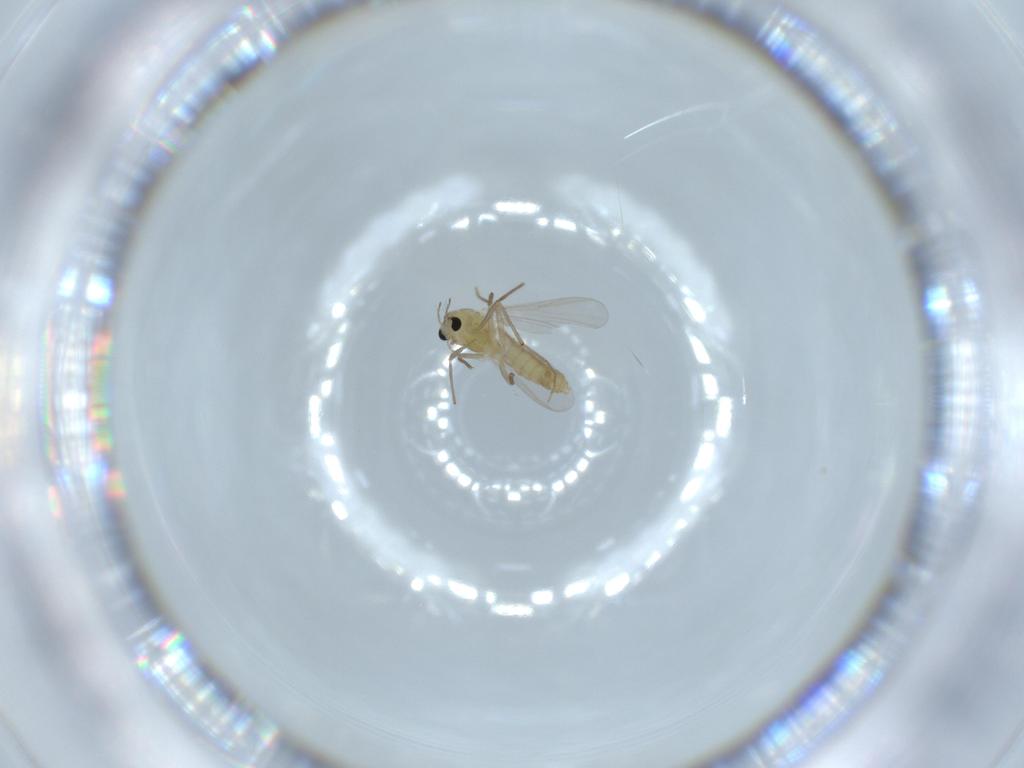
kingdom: Animalia
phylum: Arthropoda
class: Insecta
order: Diptera
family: Chironomidae
